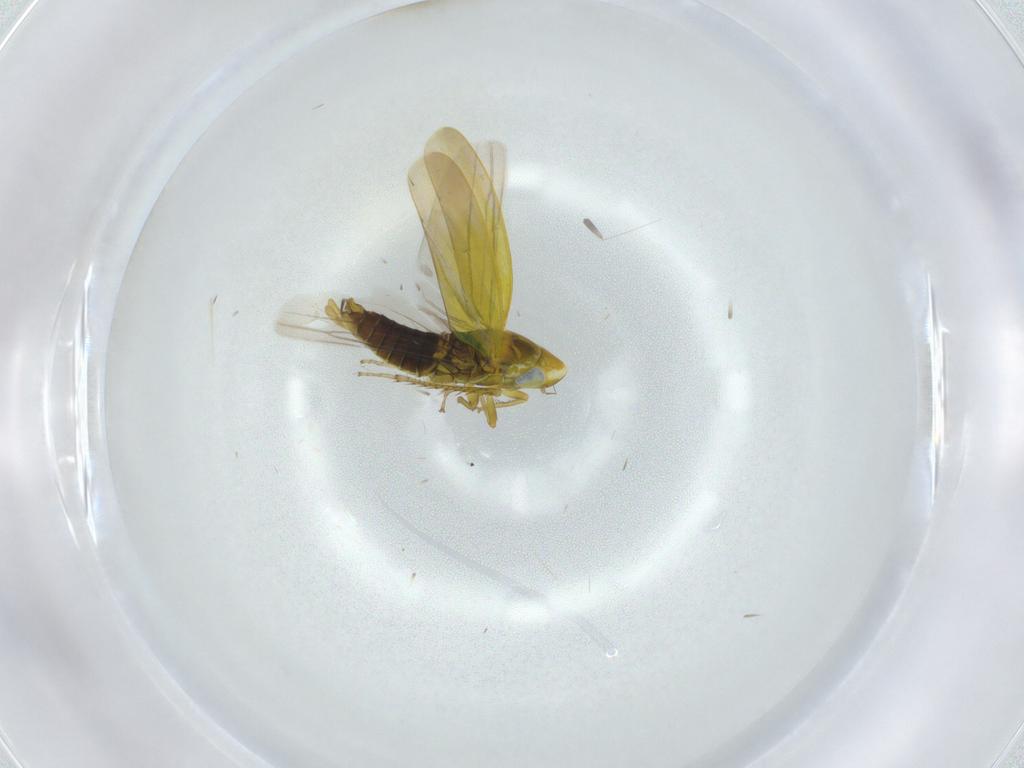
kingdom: Animalia
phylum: Arthropoda
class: Insecta
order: Hemiptera
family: Cicadellidae
